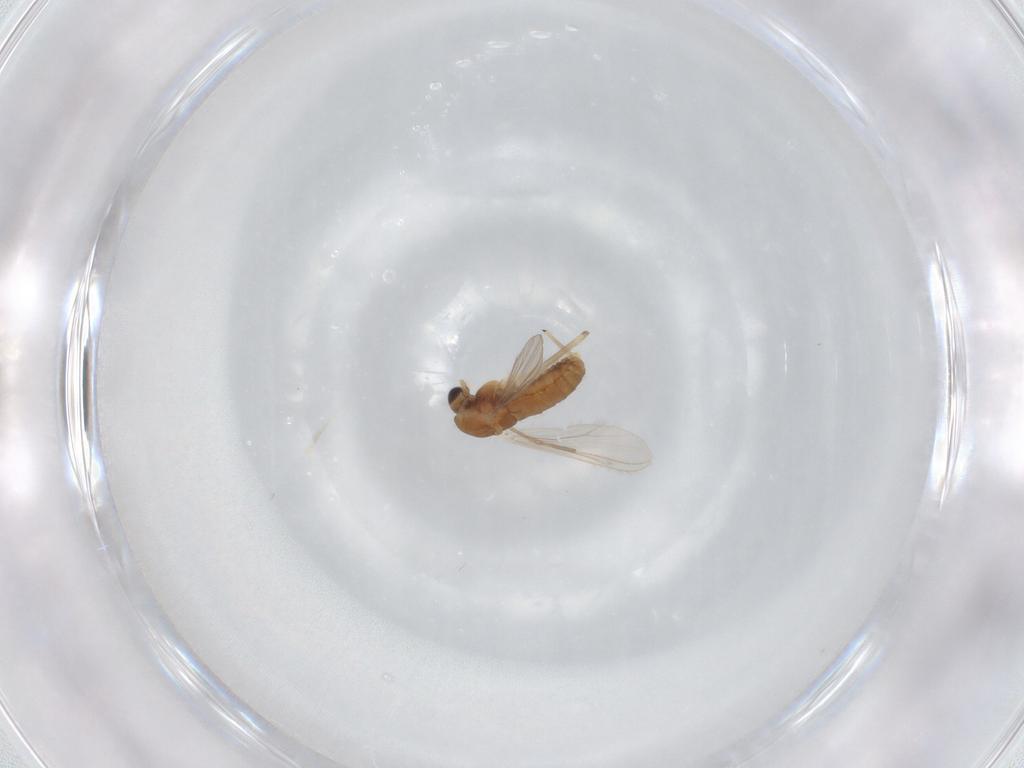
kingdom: Animalia
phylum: Arthropoda
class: Insecta
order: Diptera
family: Chironomidae
